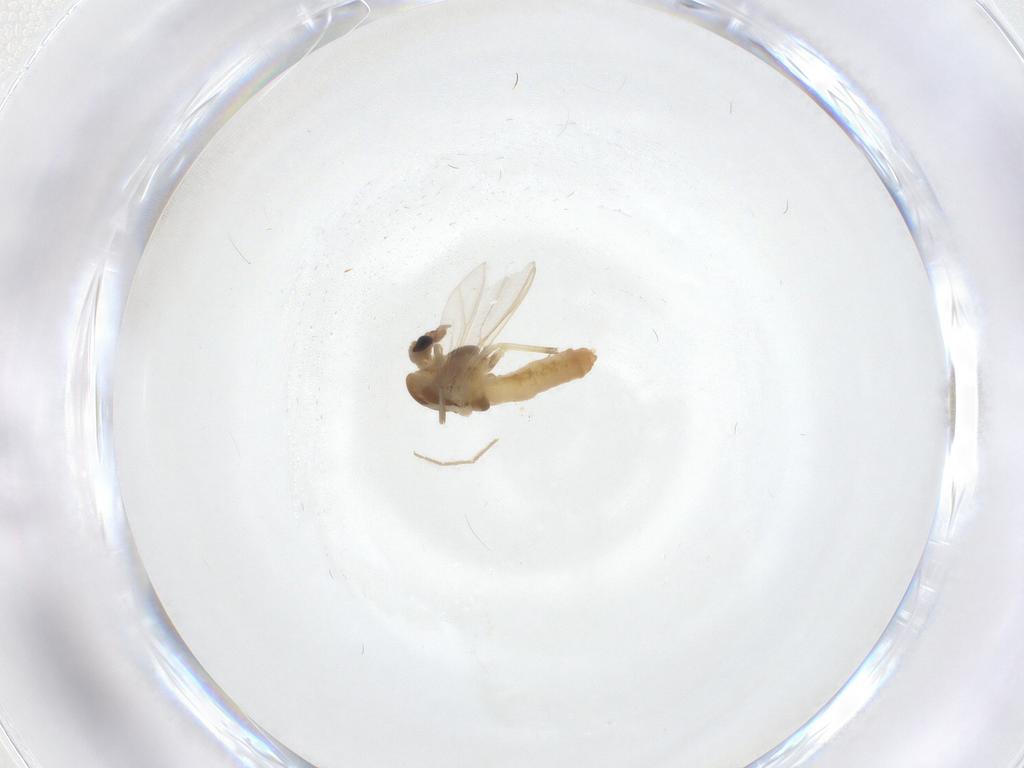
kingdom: Animalia
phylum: Arthropoda
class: Insecta
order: Diptera
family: Chironomidae
